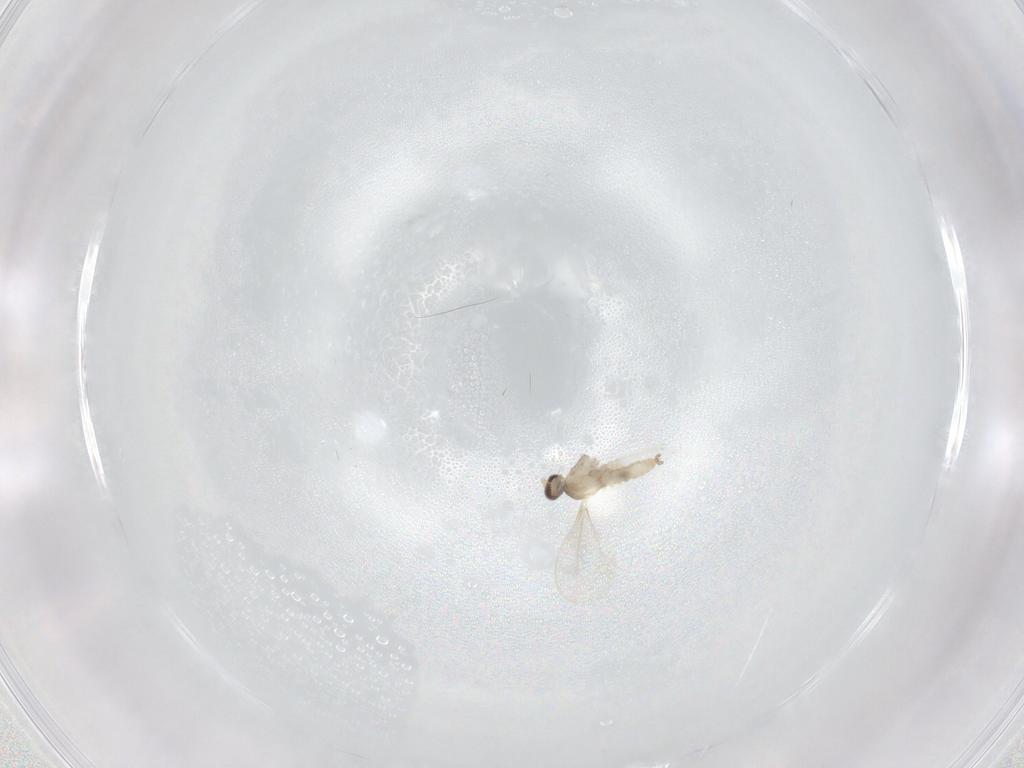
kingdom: Animalia
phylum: Arthropoda
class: Insecta
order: Diptera
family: Cecidomyiidae
